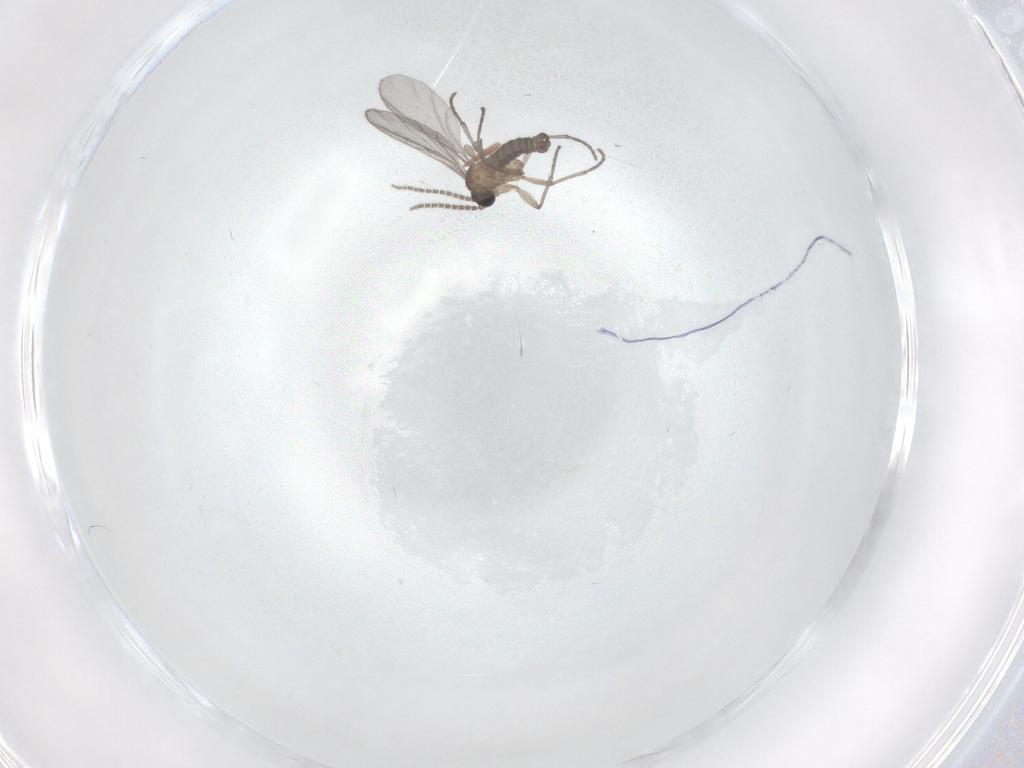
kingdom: Animalia
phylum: Arthropoda
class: Insecta
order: Diptera
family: Sciaridae
